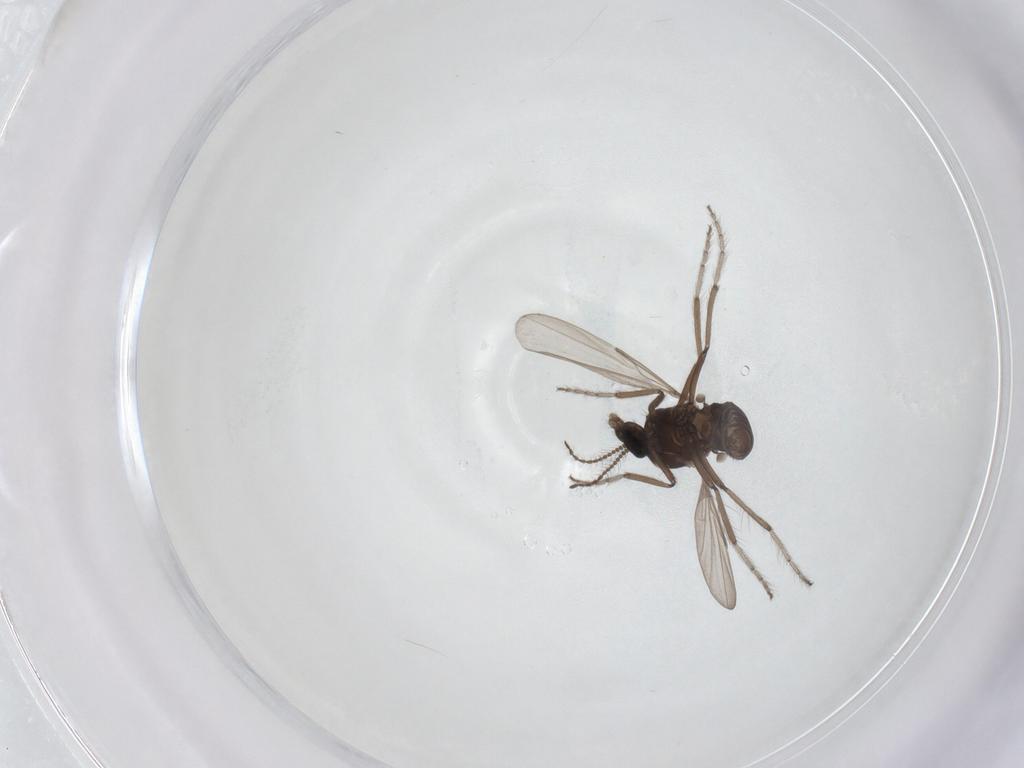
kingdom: Animalia
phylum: Arthropoda
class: Insecta
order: Diptera
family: Ceratopogonidae
